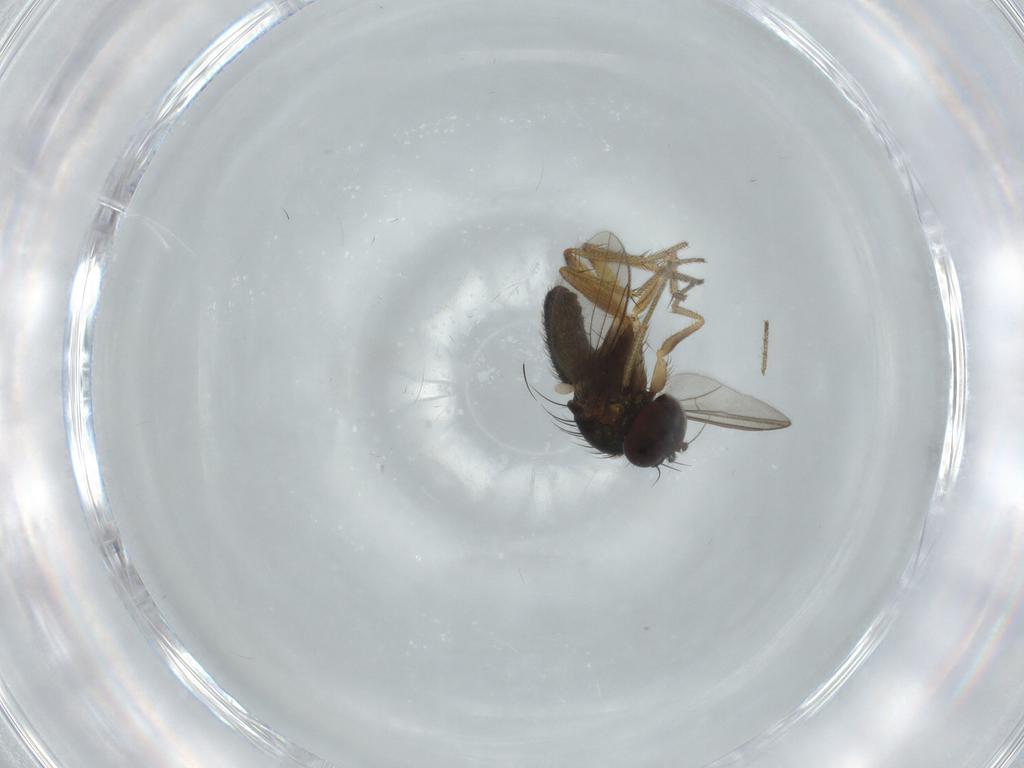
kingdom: Animalia
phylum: Arthropoda
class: Insecta
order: Diptera
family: Dolichopodidae
